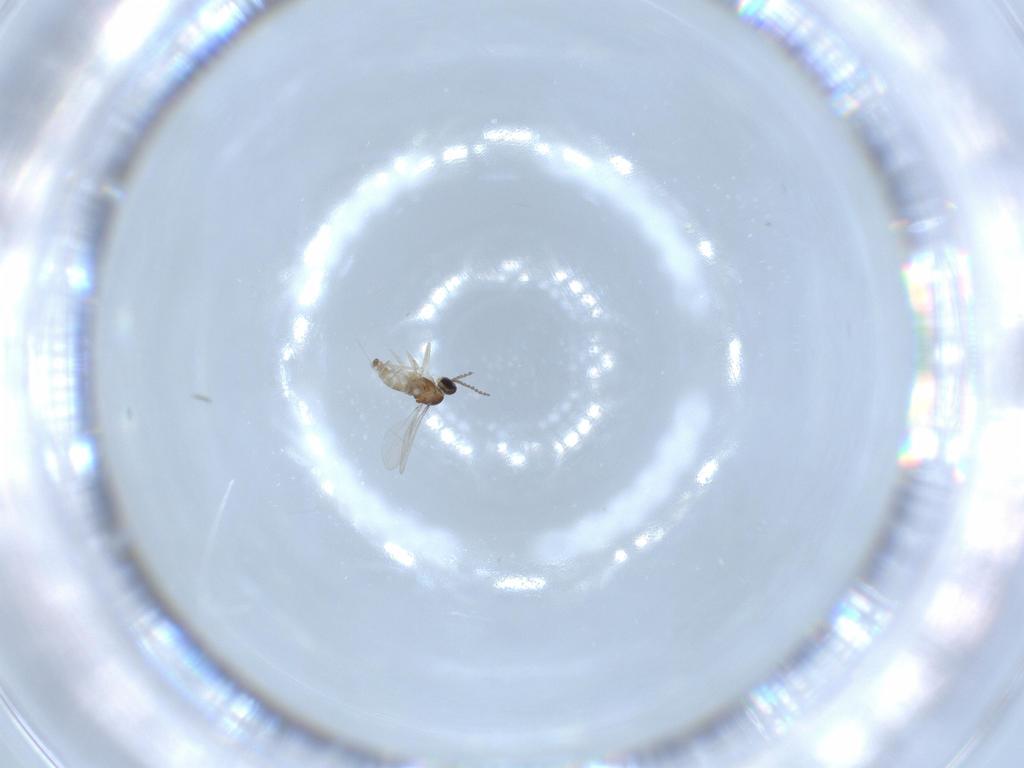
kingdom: Animalia
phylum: Arthropoda
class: Insecta
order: Diptera
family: Cecidomyiidae
